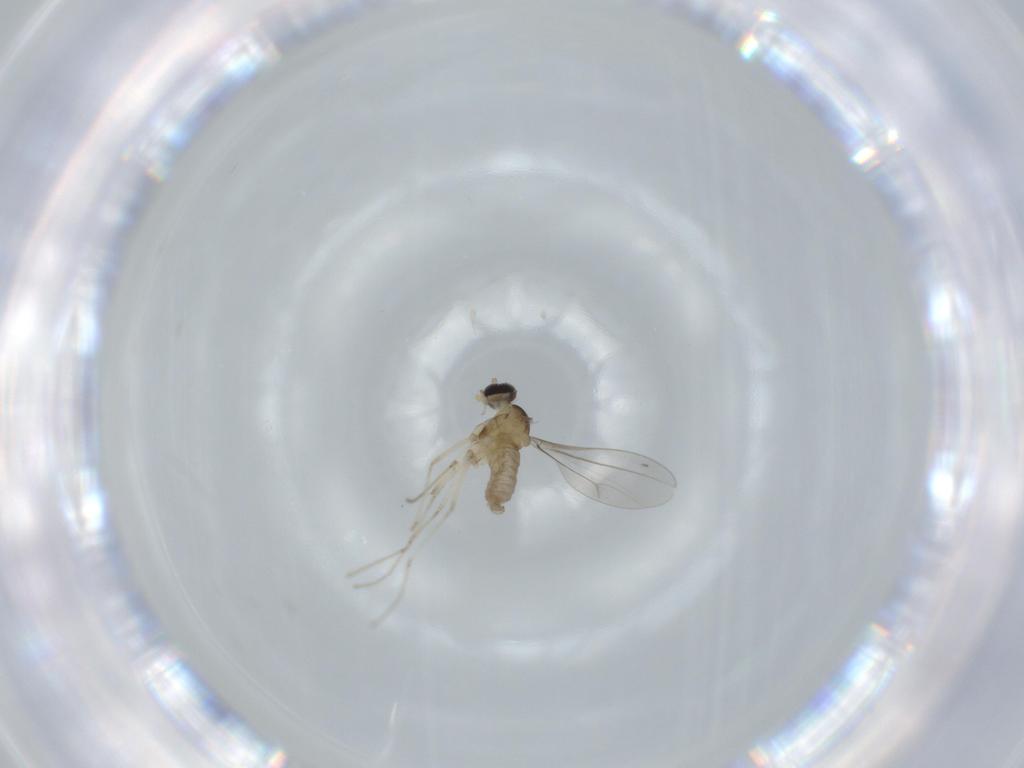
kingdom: Animalia
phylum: Arthropoda
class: Insecta
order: Diptera
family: Cecidomyiidae
